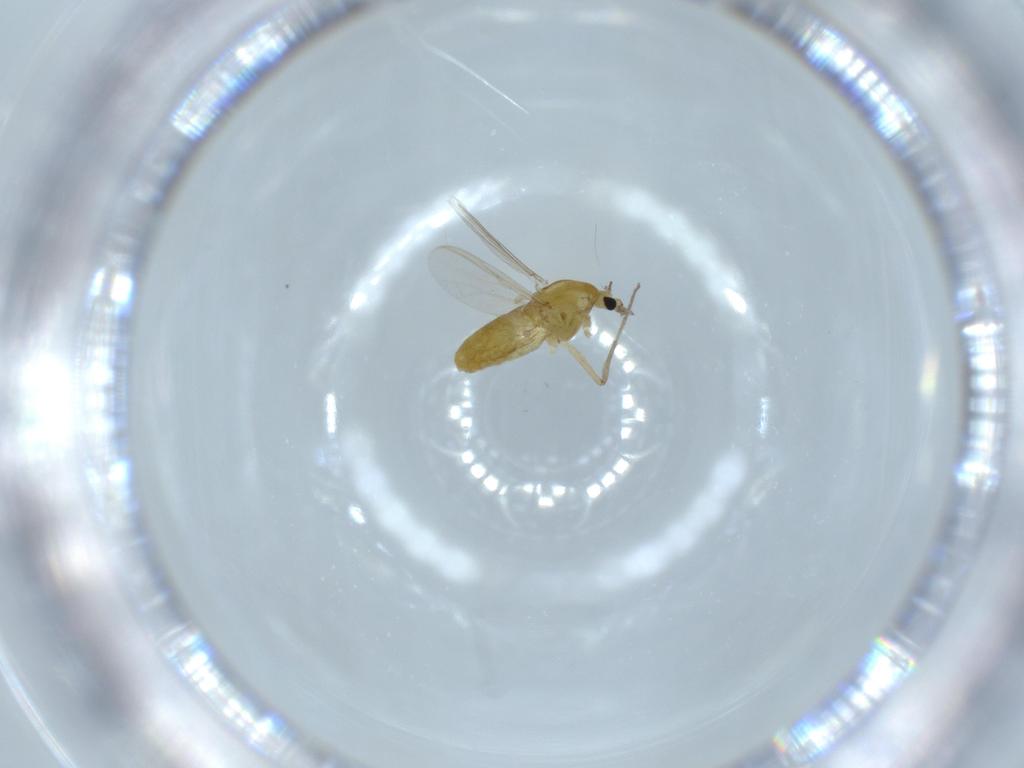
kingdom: Animalia
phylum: Arthropoda
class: Insecta
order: Diptera
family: Chironomidae
